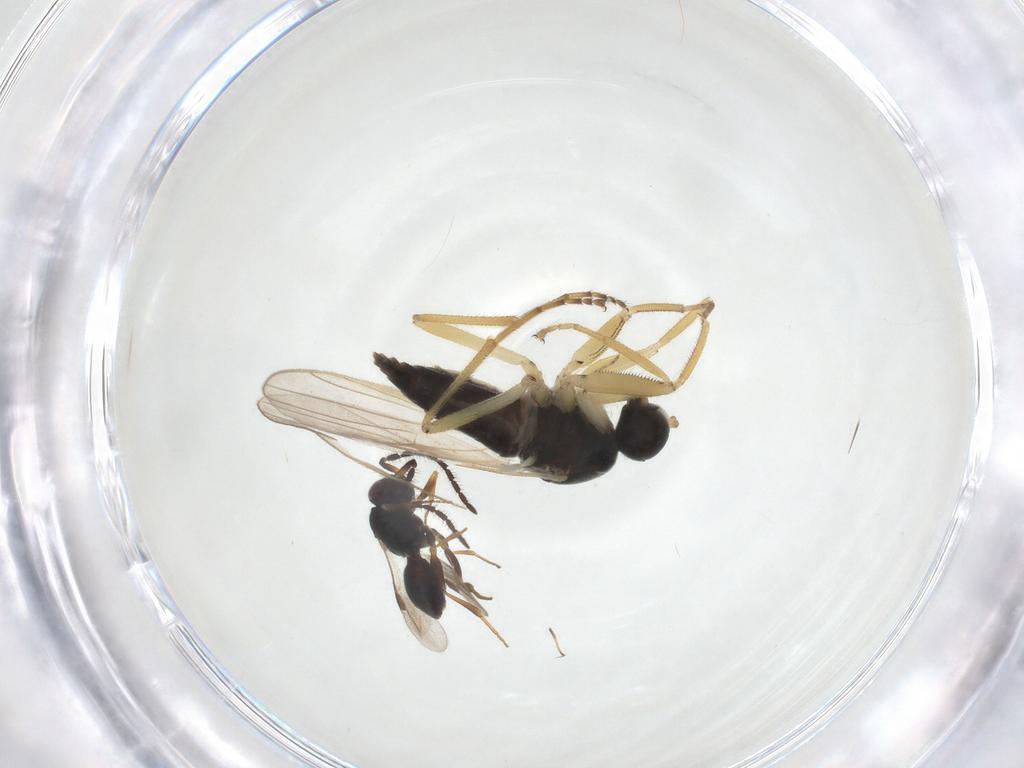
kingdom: Animalia
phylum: Arthropoda
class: Insecta
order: Diptera
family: Hybotidae
